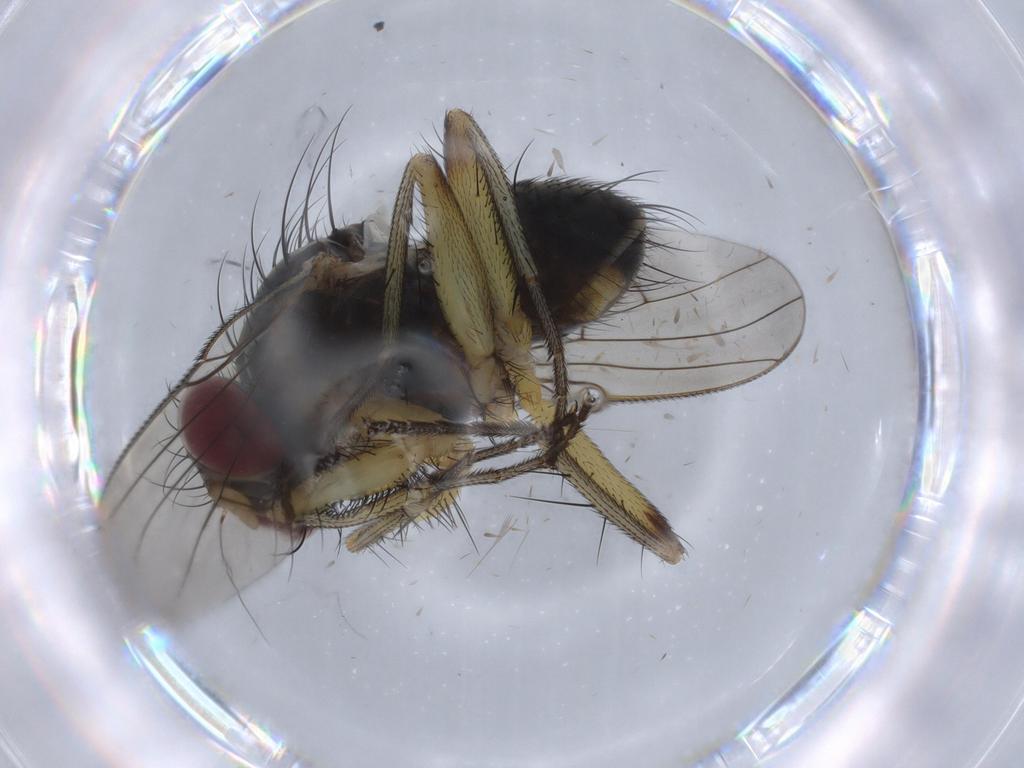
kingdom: Animalia
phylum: Arthropoda
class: Insecta
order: Diptera
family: Muscidae
